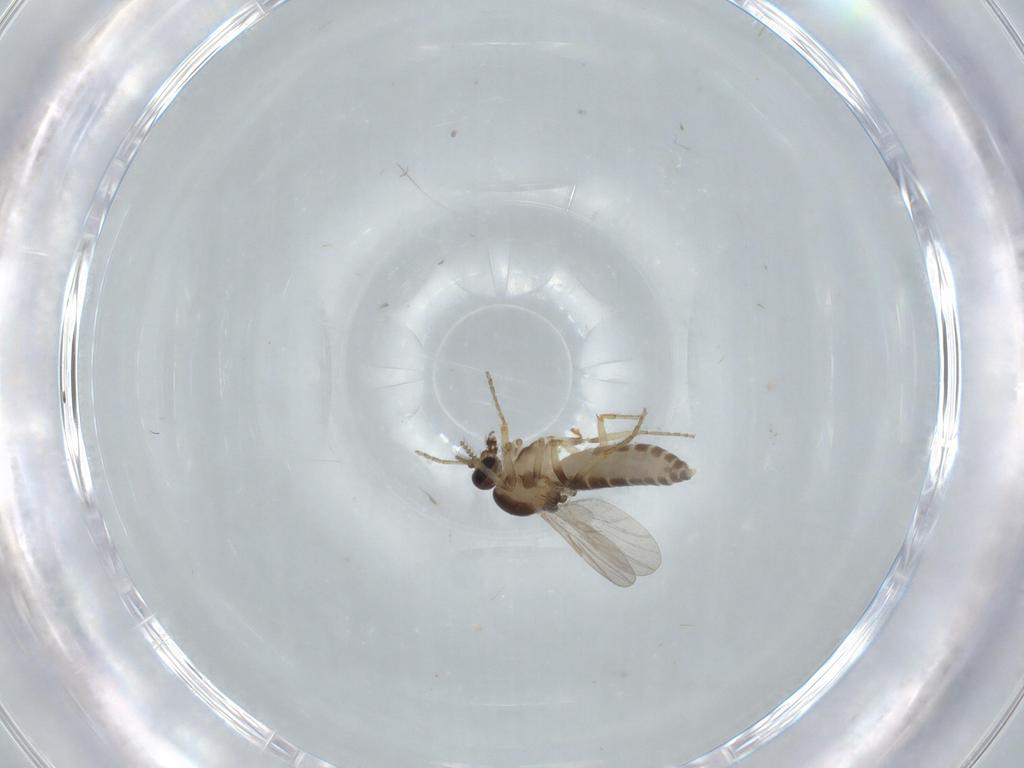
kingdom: Animalia
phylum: Arthropoda
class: Insecta
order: Diptera
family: Ceratopogonidae
